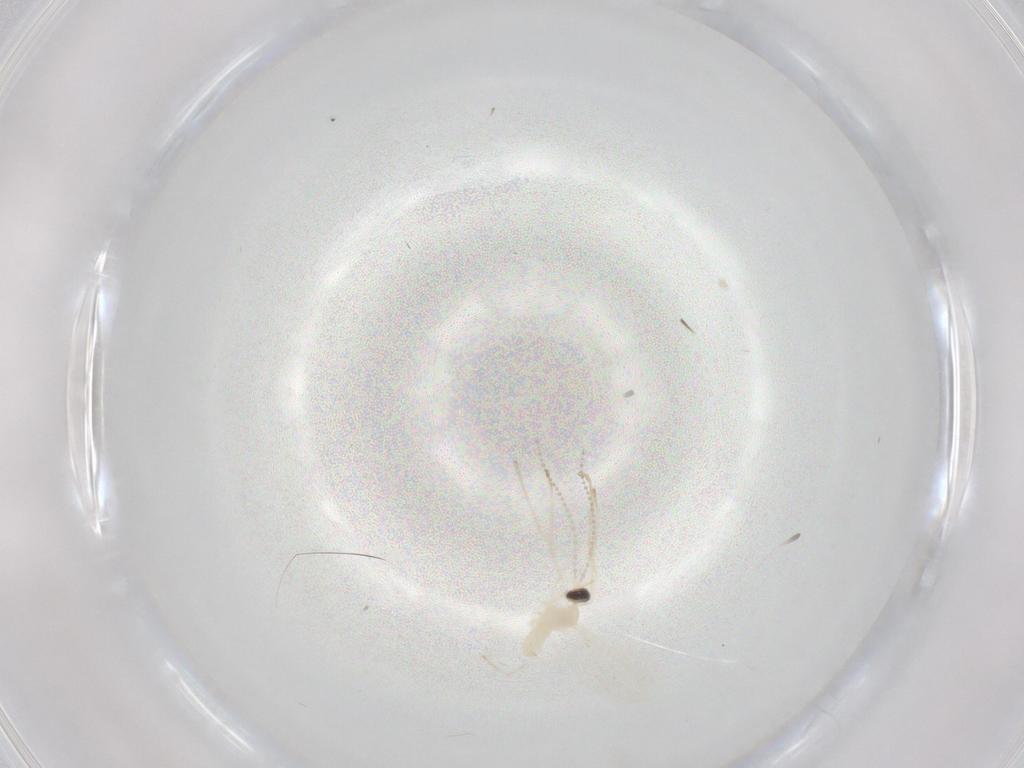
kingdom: Animalia
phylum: Arthropoda
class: Insecta
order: Diptera
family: Cecidomyiidae
